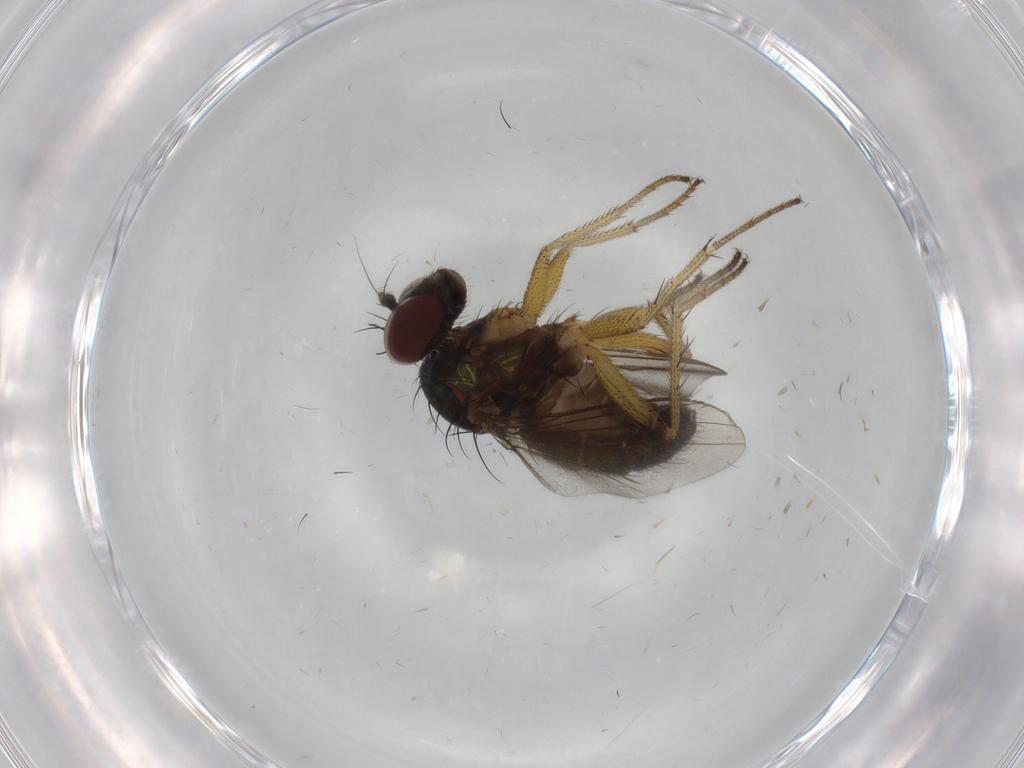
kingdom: Animalia
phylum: Arthropoda
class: Insecta
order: Diptera
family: Dolichopodidae
